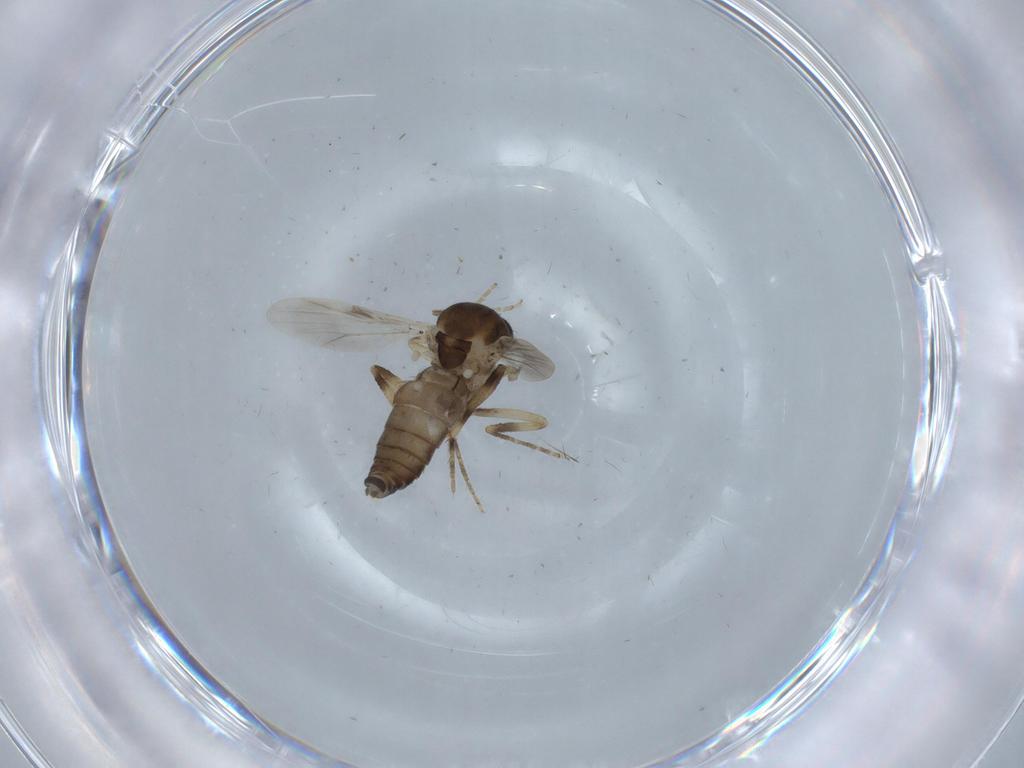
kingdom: Animalia
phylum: Arthropoda
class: Insecta
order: Diptera
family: Ceratopogonidae
